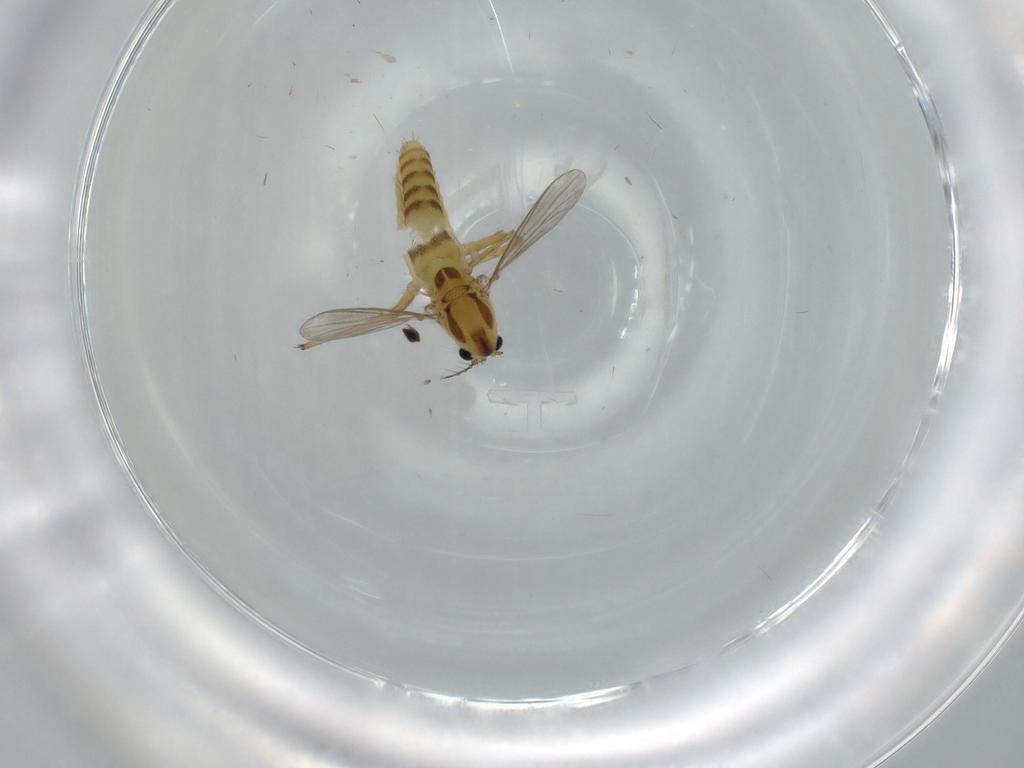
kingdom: Animalia
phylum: Arthropoda
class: Insecta
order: Diptera
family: Chironomidae
